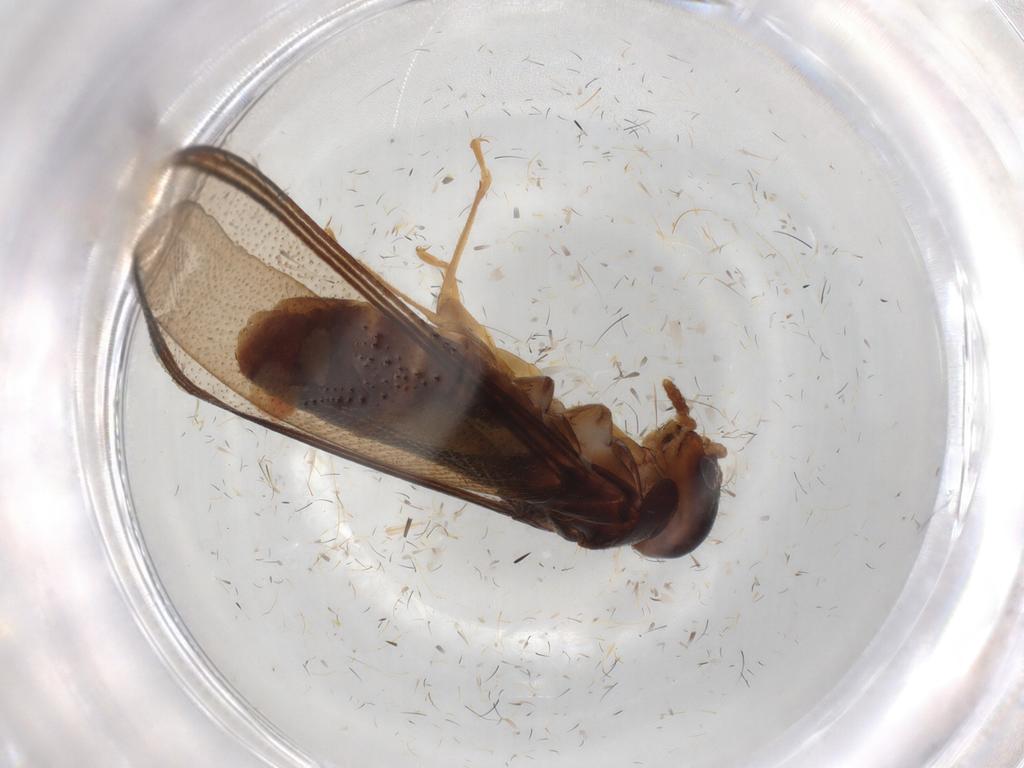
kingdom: Animalia
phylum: Arthropoda
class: Insecta
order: Blattodea
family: Kalotermitidae
